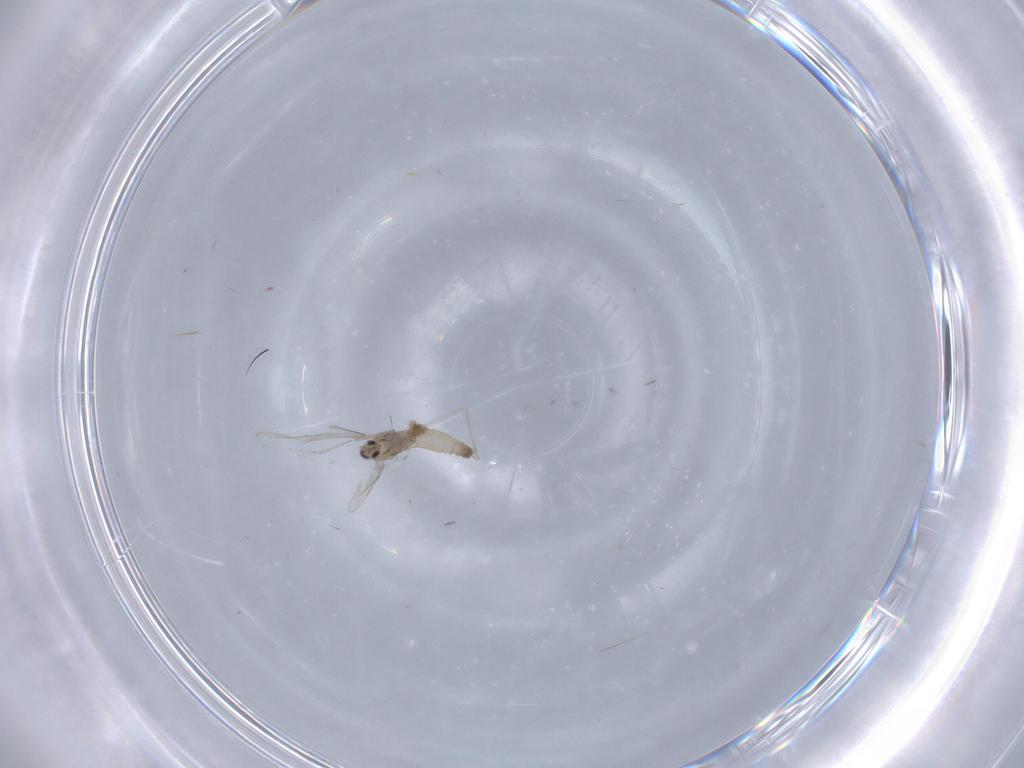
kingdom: Animalia
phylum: Arthropoda
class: Insecta
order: Diptera
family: Cecidomyiidae
